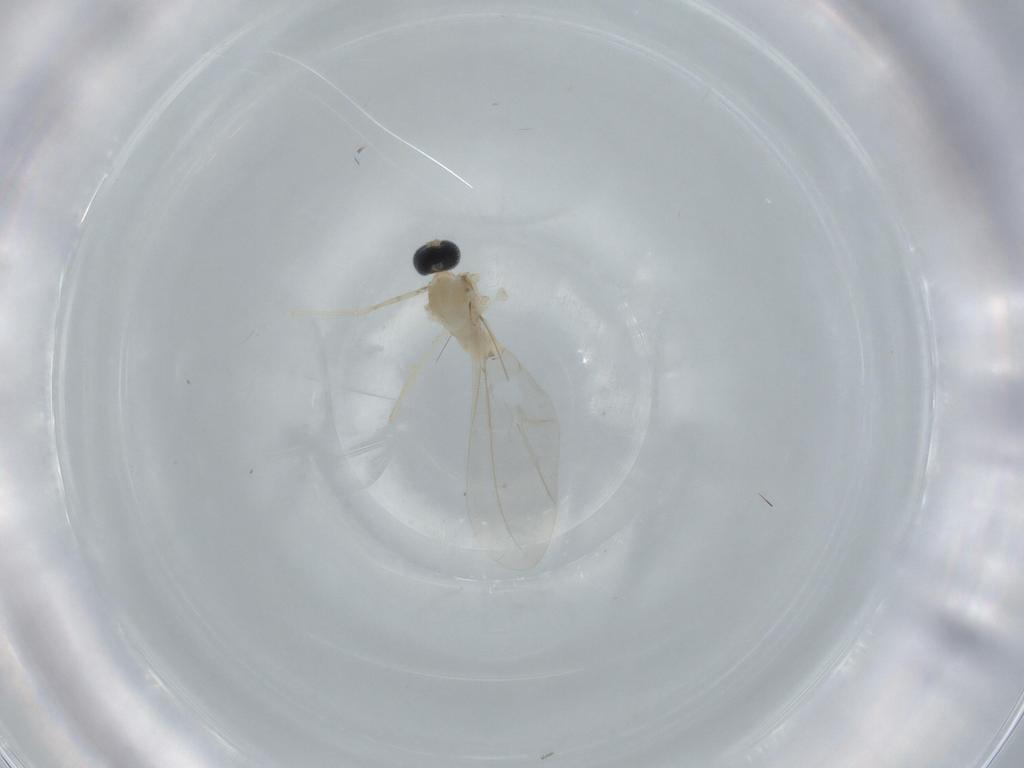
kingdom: Animalia
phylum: Arthropoda
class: Insecta
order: Diptera
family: Cecidomyiidae
